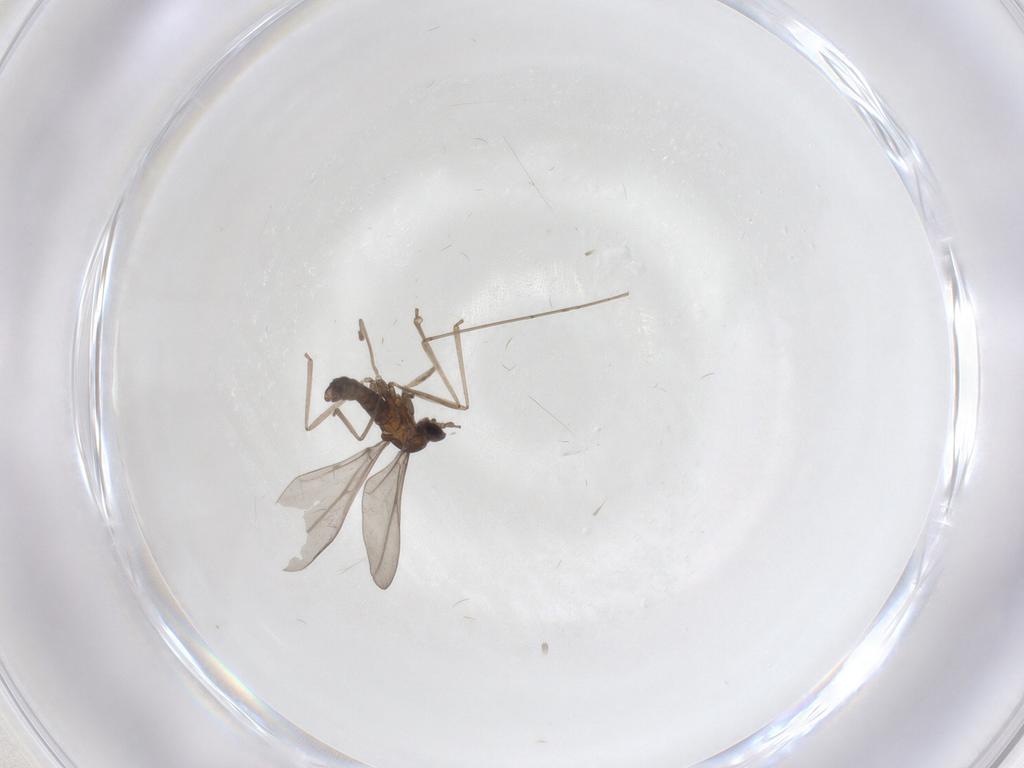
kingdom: Animalia
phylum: Arthropoda
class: Insecta
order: Diptera
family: Cecidomyiidae
